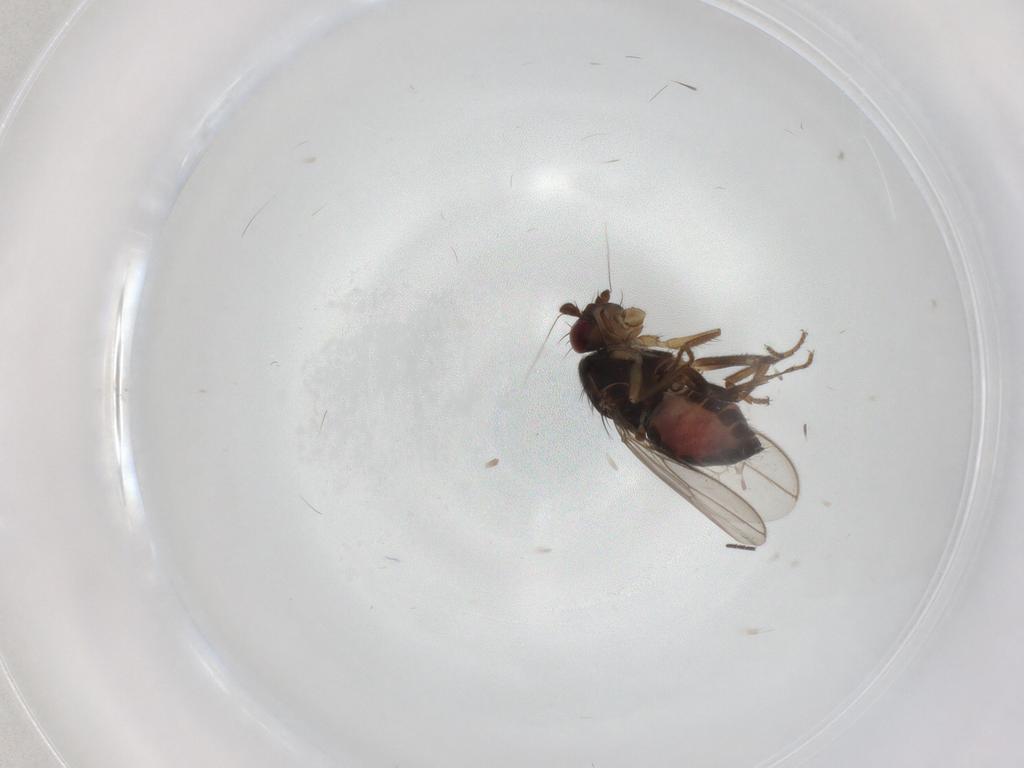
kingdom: Animalia
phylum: Arthropoda
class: Insecta
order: Diptera
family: Sphaeroceridae
